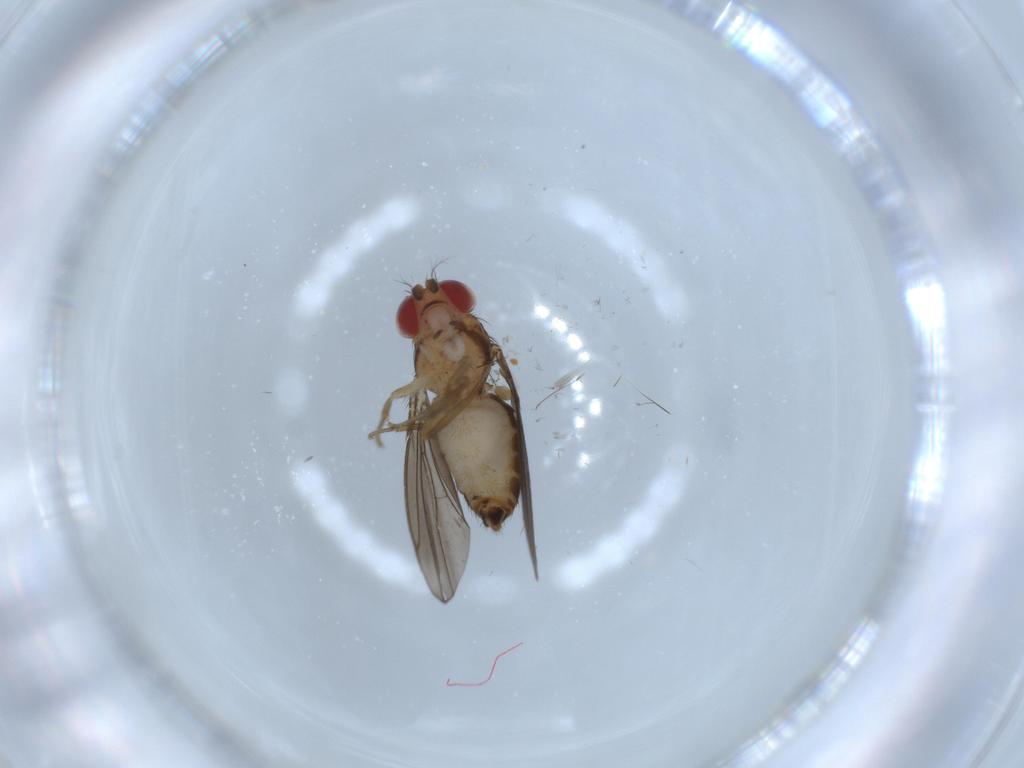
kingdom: Animalia
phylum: Arthropoda
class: Insecta
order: Diptera
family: Drosophilidae
